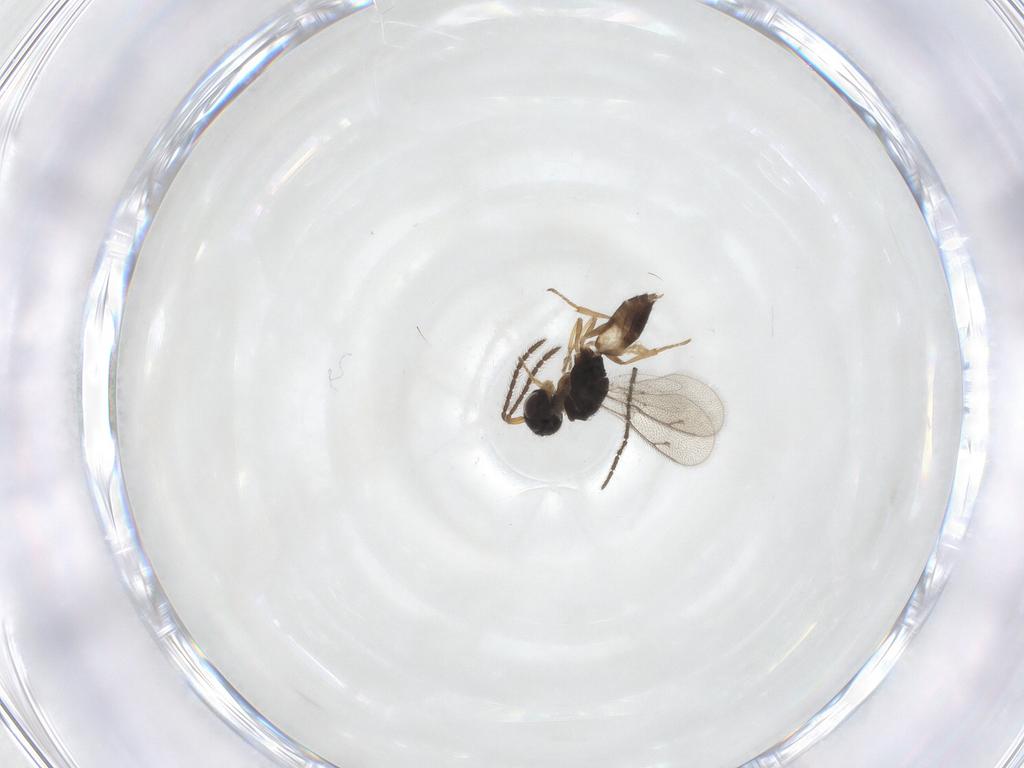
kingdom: Animalia
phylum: Arthropoda
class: Insecta
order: Hymenoptera
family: Pteromalidae
